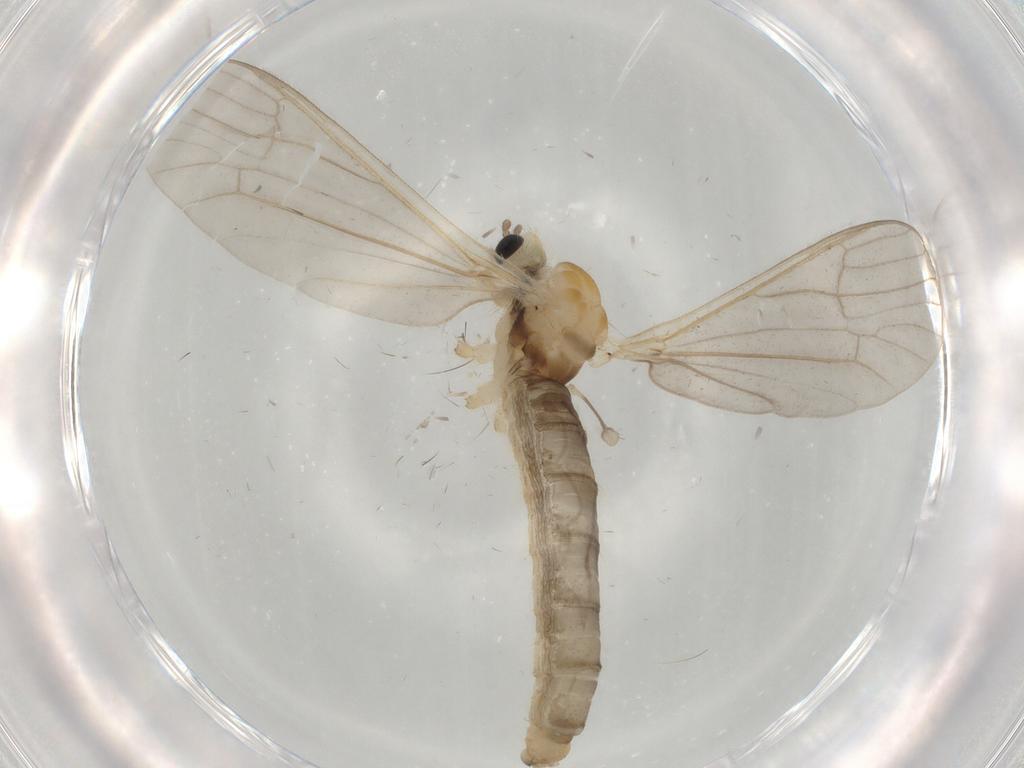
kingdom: Animalia
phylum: Arthropoda
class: Insecta
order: Diptera
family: Limoniidae
